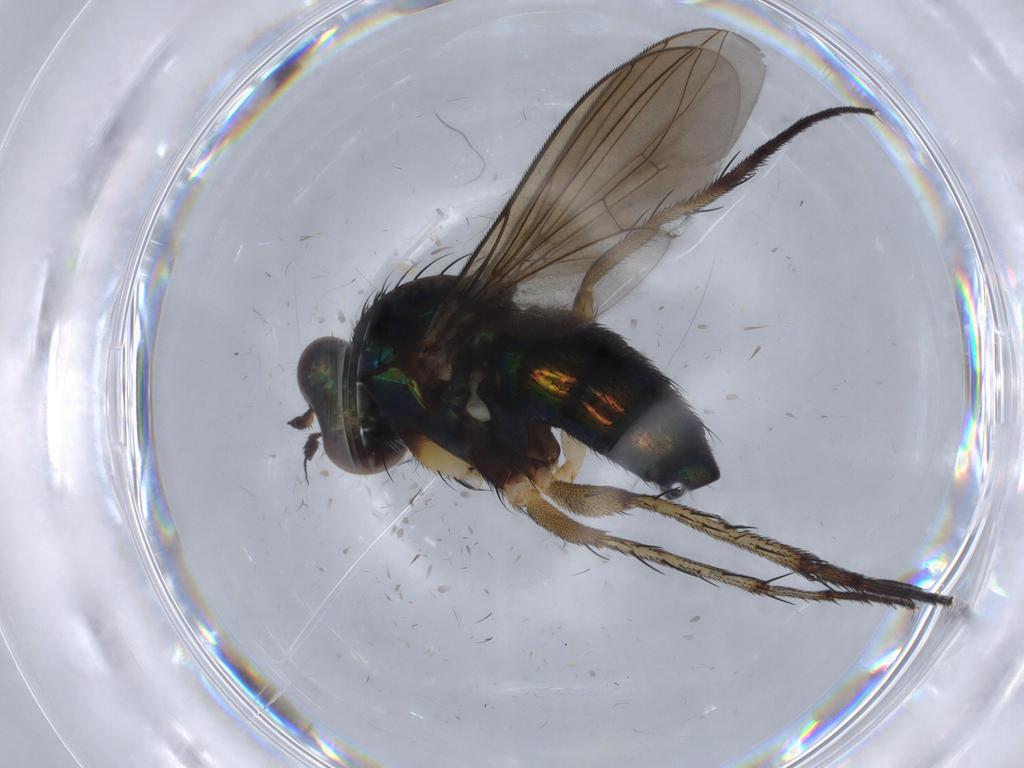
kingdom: Animalia
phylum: Arthropoda
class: Insecta
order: Diptera
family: Dolichopodidae
